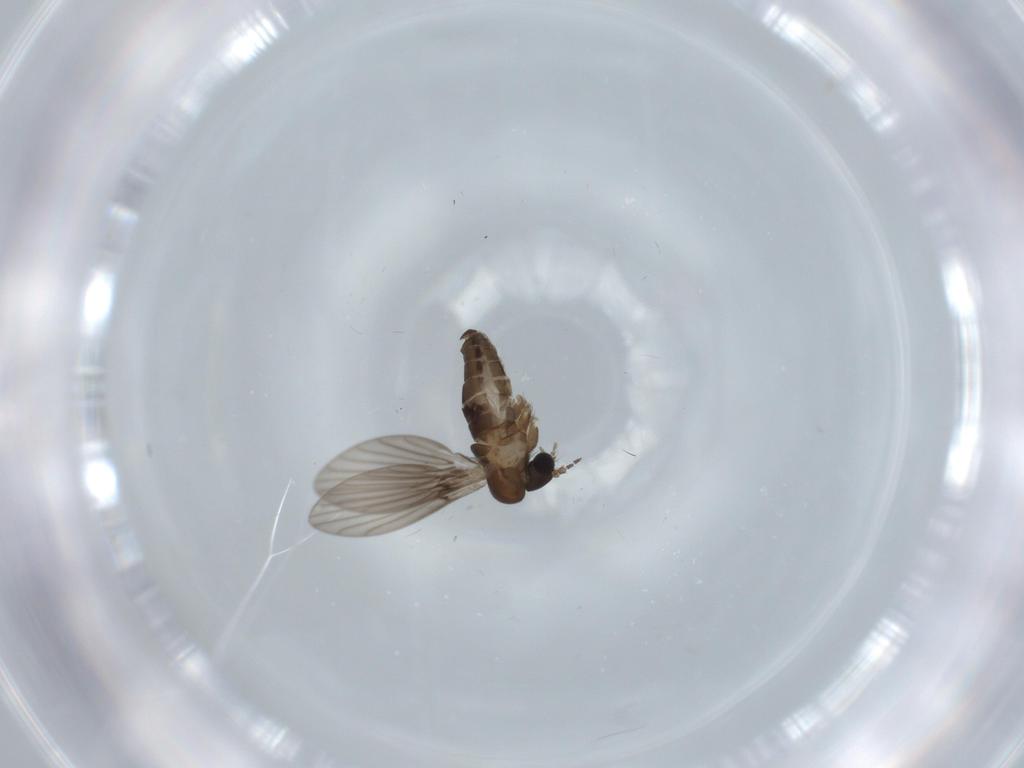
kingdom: Animalia
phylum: Arthropoda
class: Insecta
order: Diptera
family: Psychodidae
